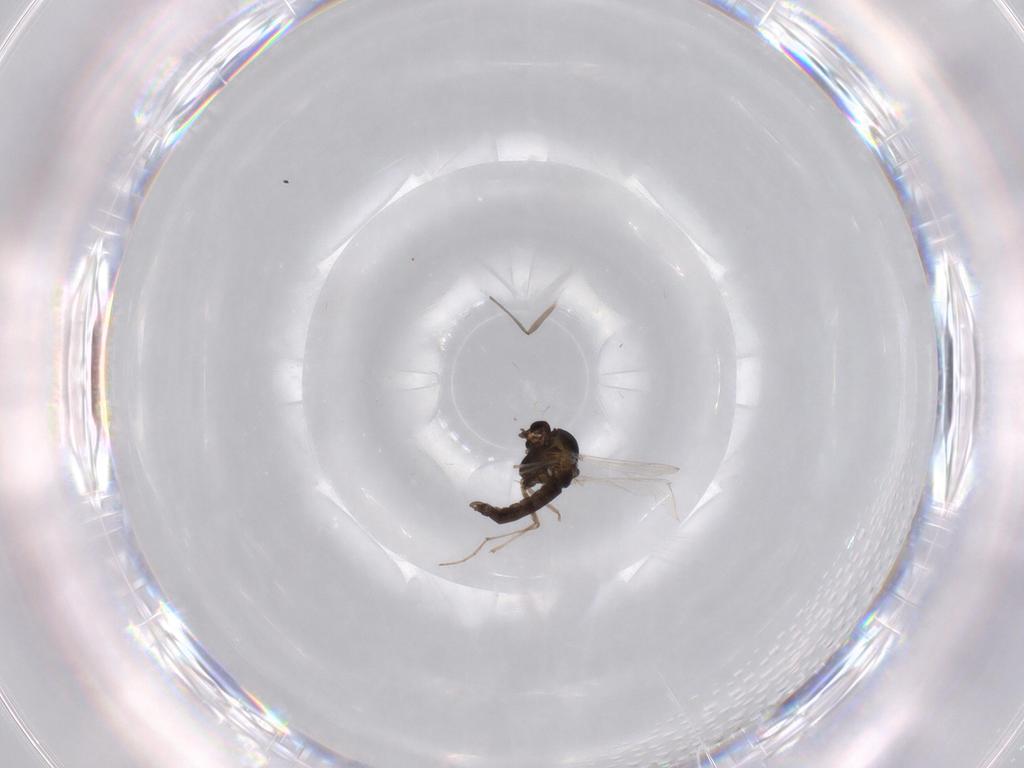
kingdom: Animalia
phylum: Arthropoda
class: Insecta
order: Diptera
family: Chironomidae
